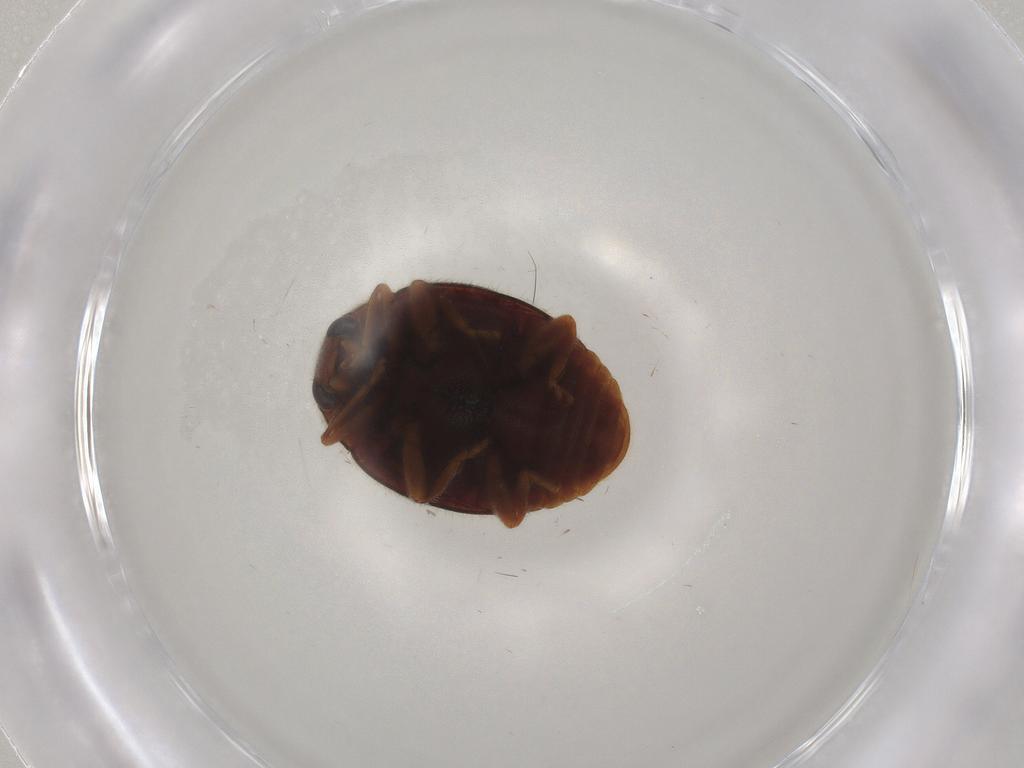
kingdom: Animalia
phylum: Arthropoda
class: Insecta
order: Coleoptera
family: Coccinellidae
